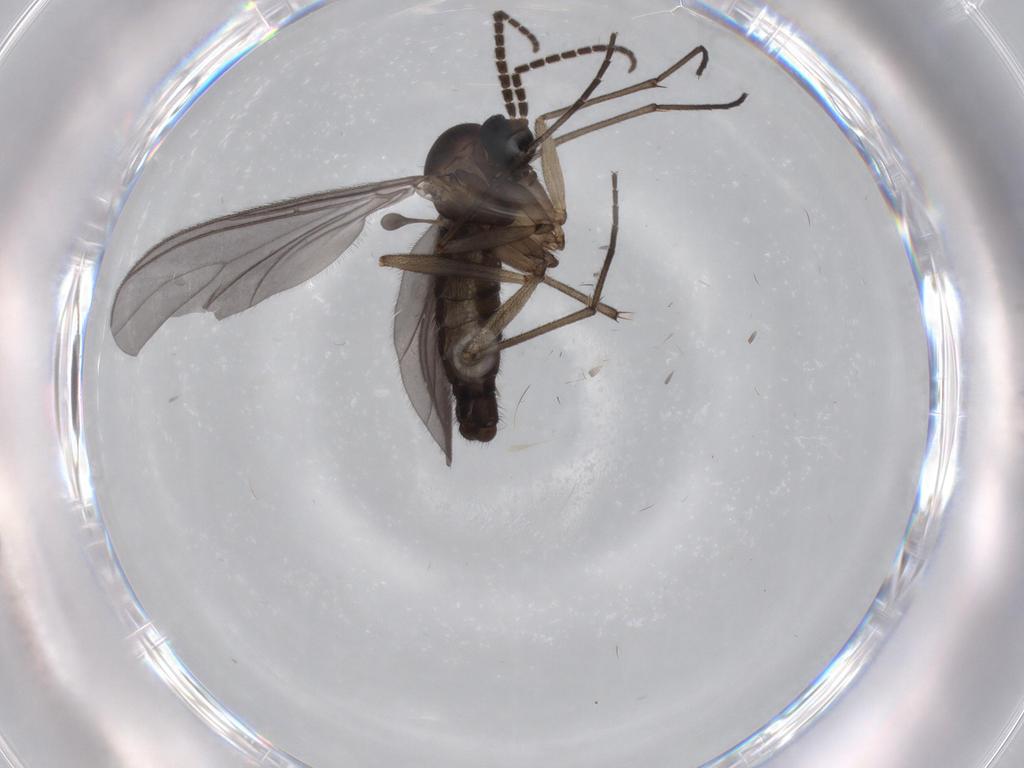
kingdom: Animalia
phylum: Arthropoda
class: Insecta
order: Diptera
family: Sciaridae
